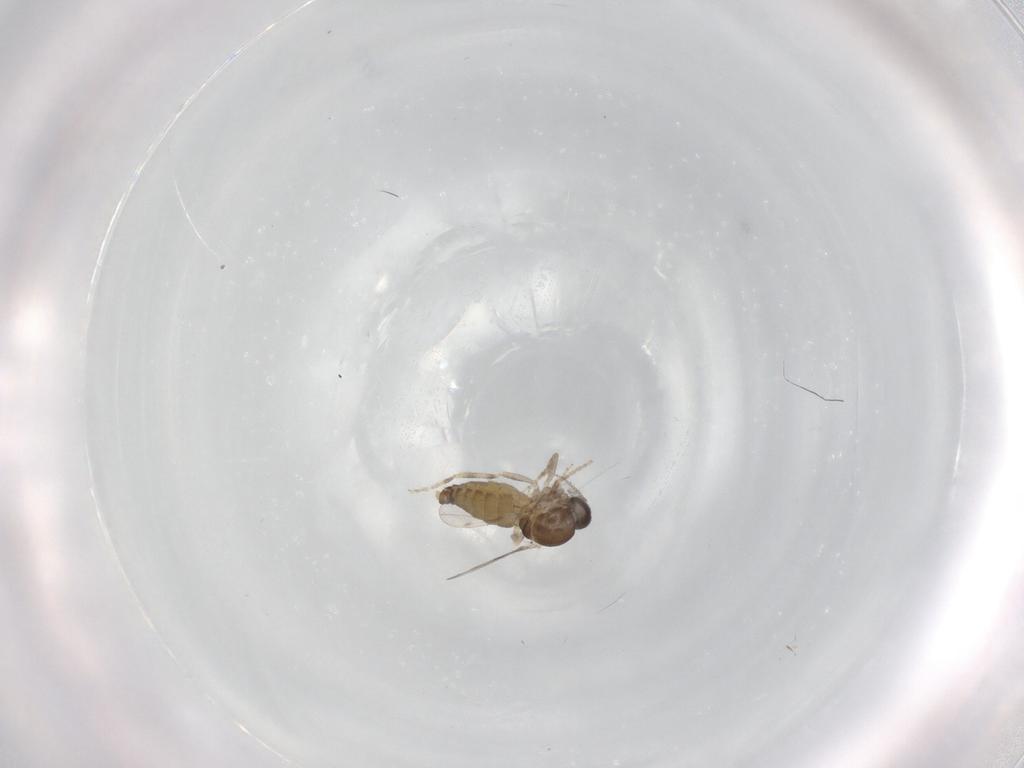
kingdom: Animalia
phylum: Arthropoda
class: Insecta
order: Diptera
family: Ceratopogonidae
